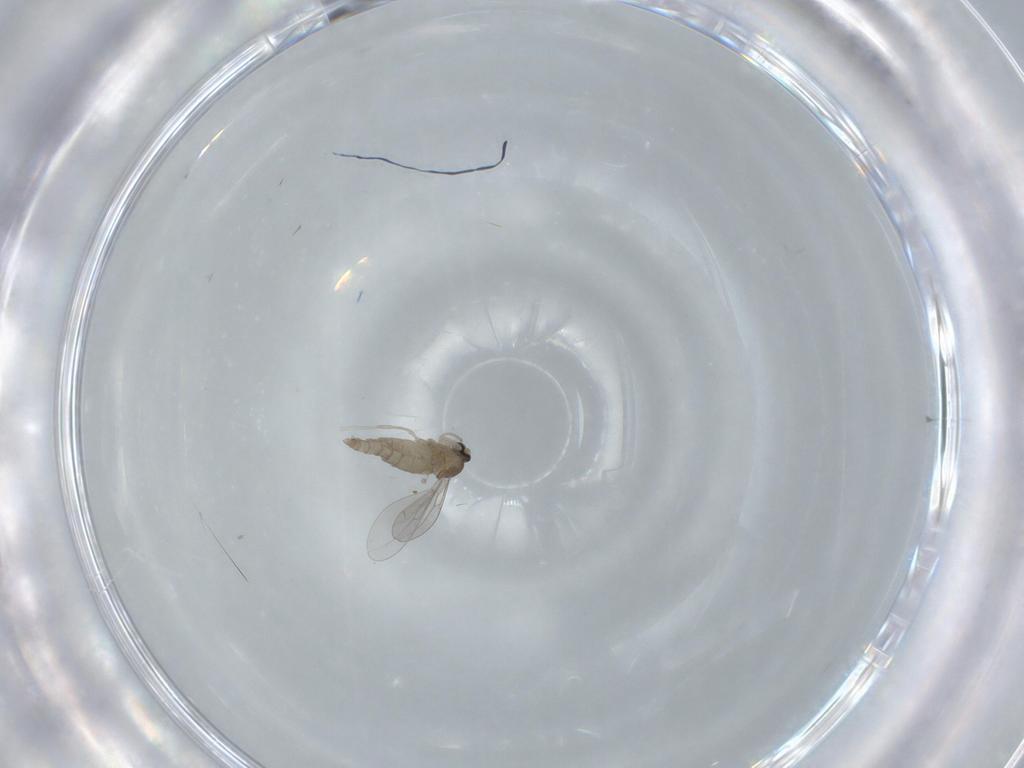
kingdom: Animalia
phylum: Arthropoda
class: Insecta
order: Diptera
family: Cecidomyiidae
